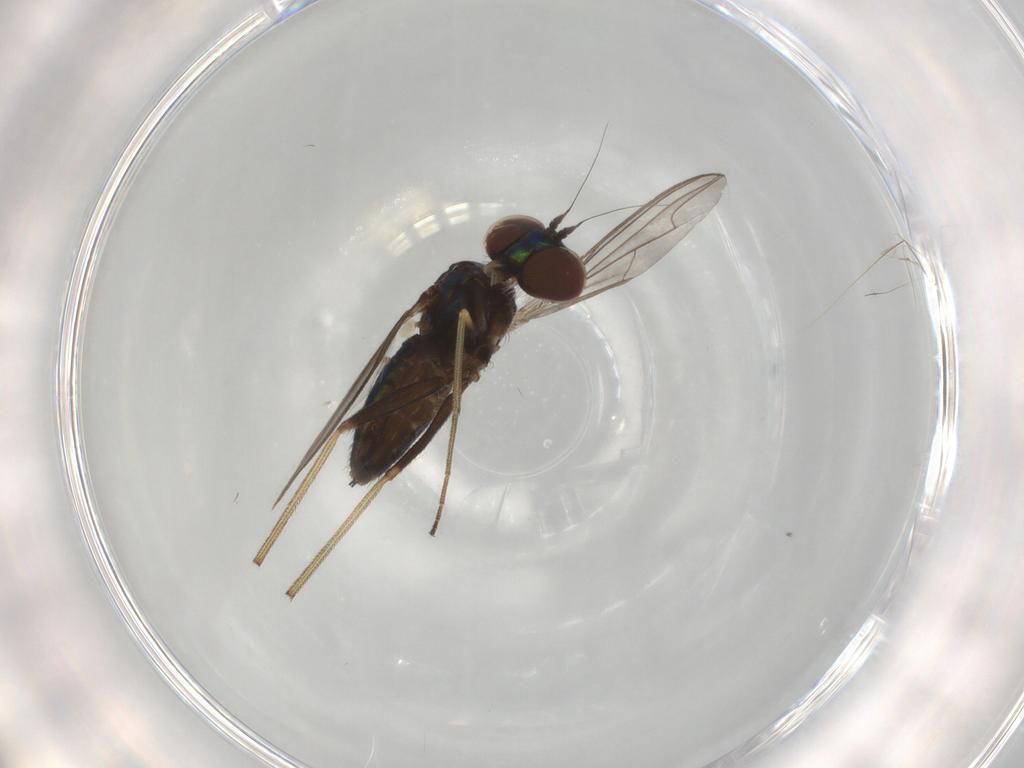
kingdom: Animalia
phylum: Arthropoda
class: Insecta
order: Diptera
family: Dolichopodidae
